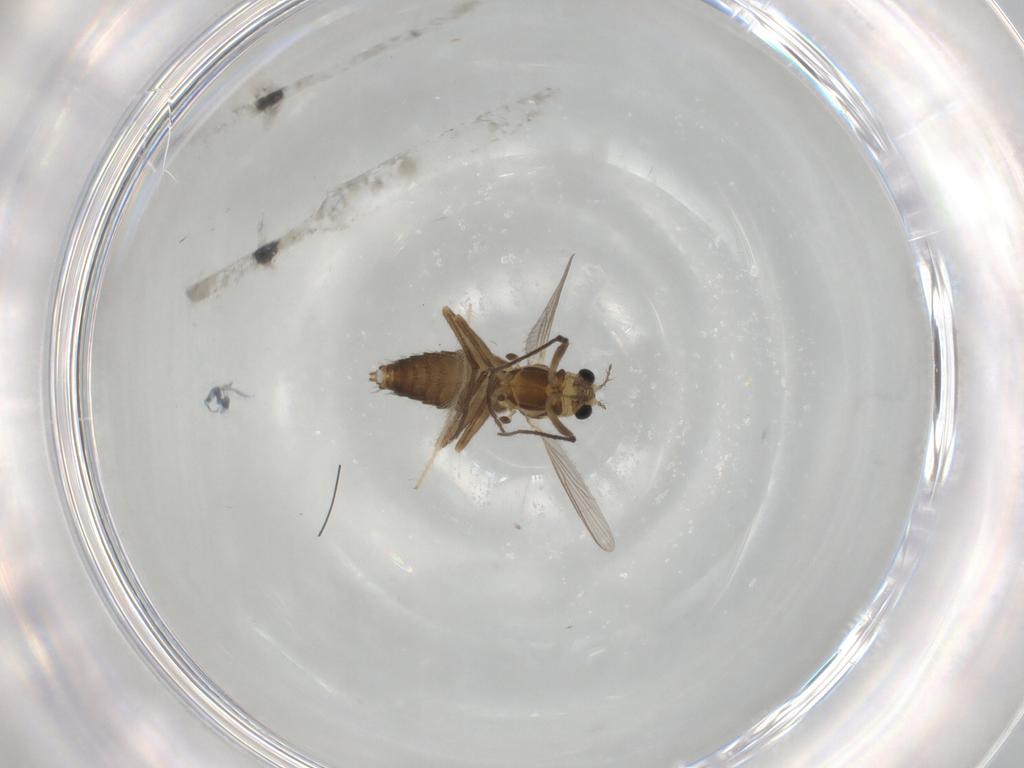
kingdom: Animalia
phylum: Arthropoda
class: Insecta
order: Diptera
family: Chironomidae
